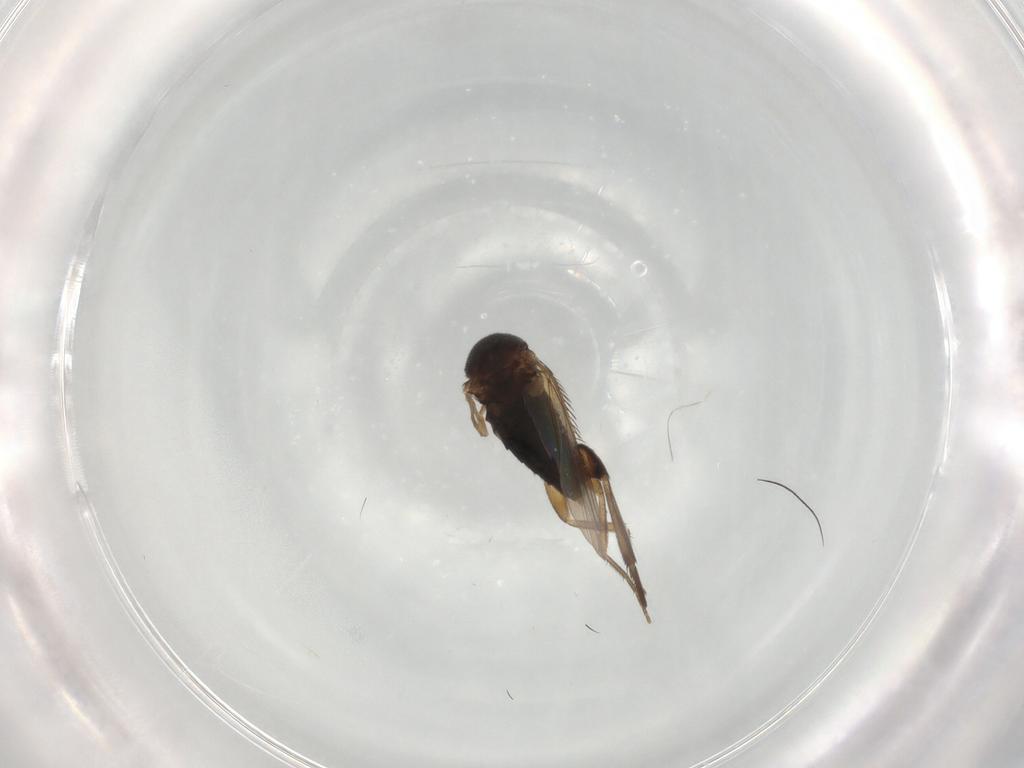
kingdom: Animalia
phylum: Arthropoda
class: Insecta
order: Diptera
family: Phoridae
